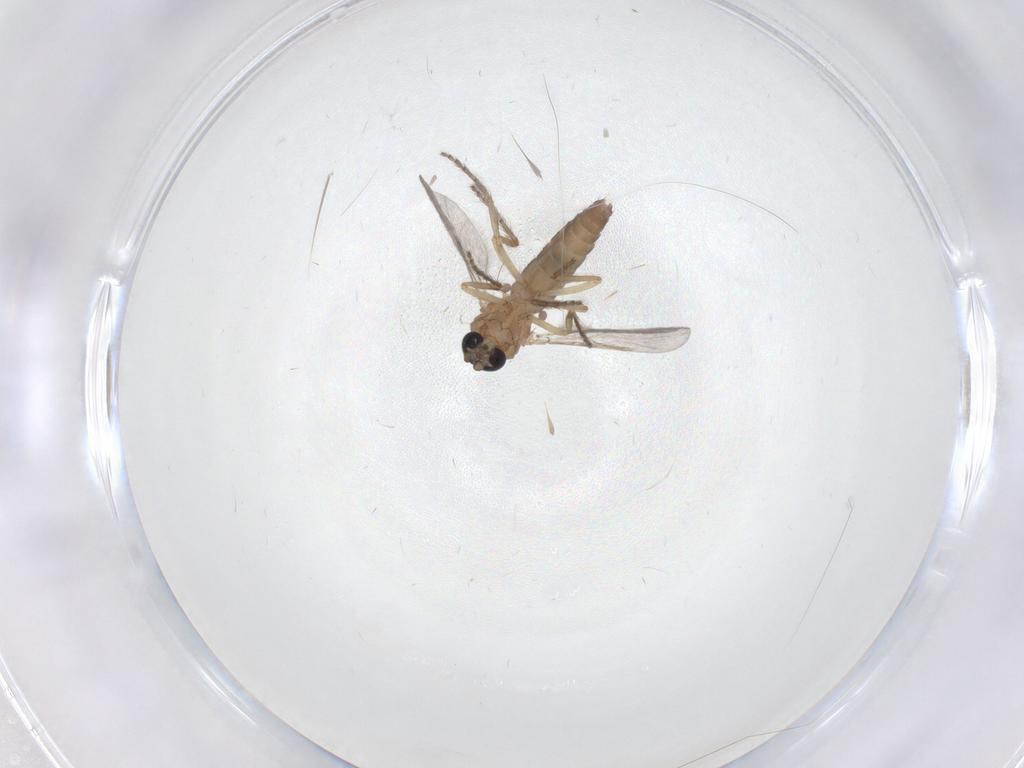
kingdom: Animalia
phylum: Arthropoda
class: Insecta
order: Diptera
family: Ceratopogonidae
